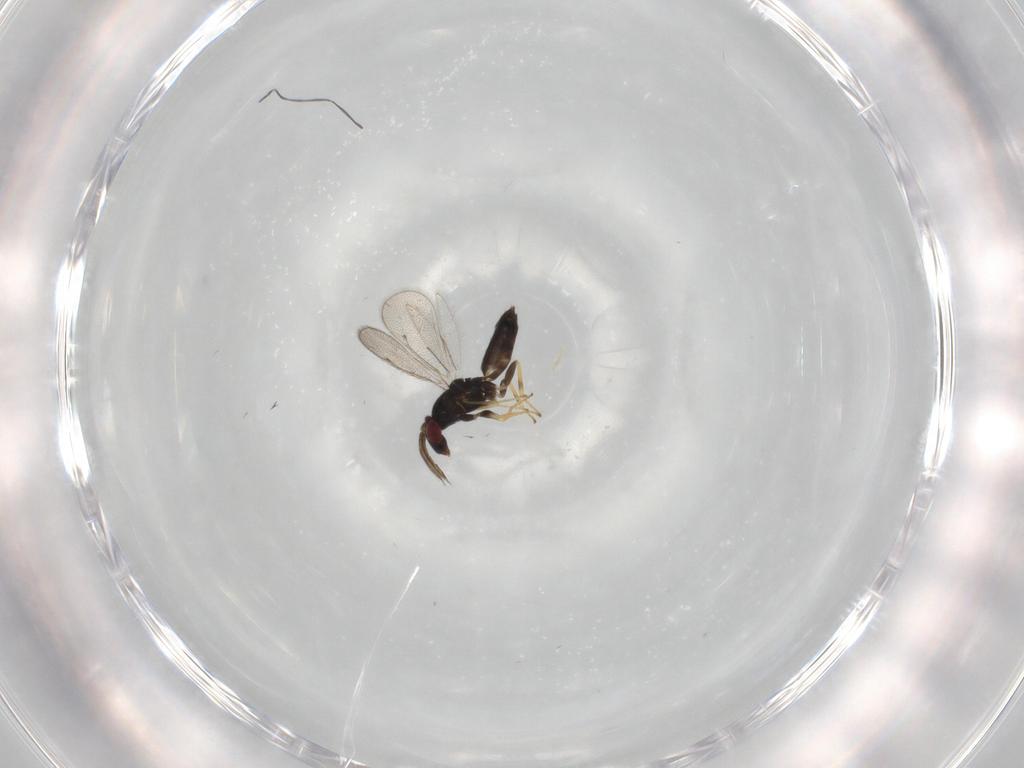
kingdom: Animalia
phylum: Arthropoda
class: Insecta
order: Hymenoptera
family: Eulophidae
